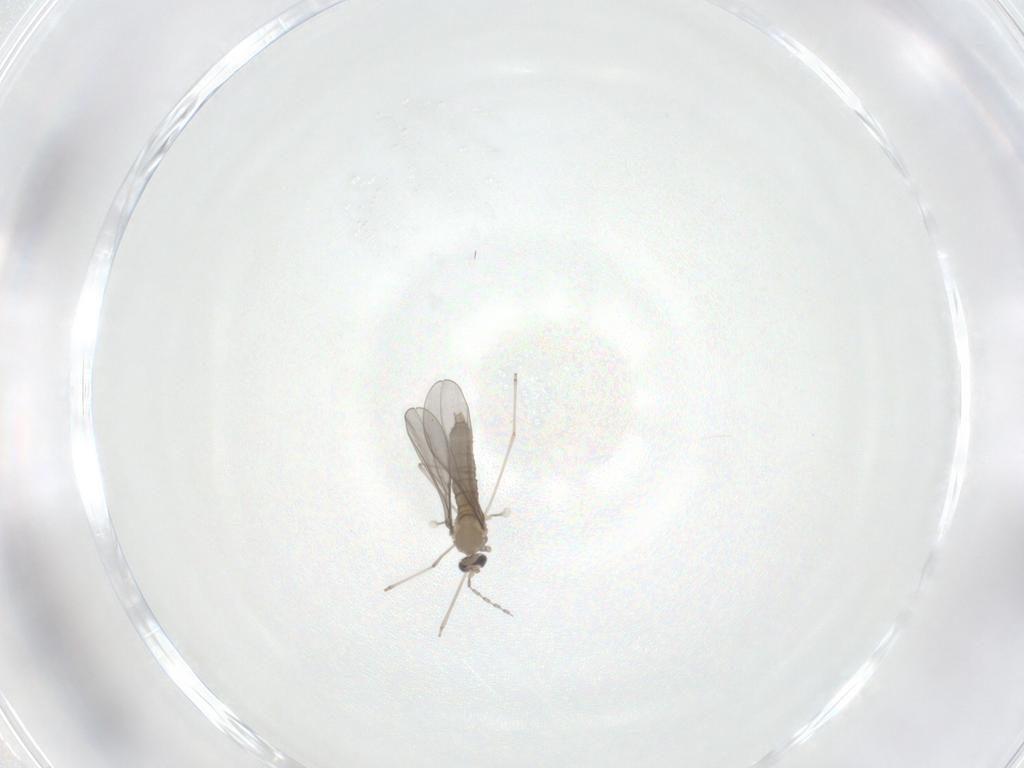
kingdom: Animalia
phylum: Arthropoda
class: Insecta
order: Diptera
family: Cecidomyiidae
